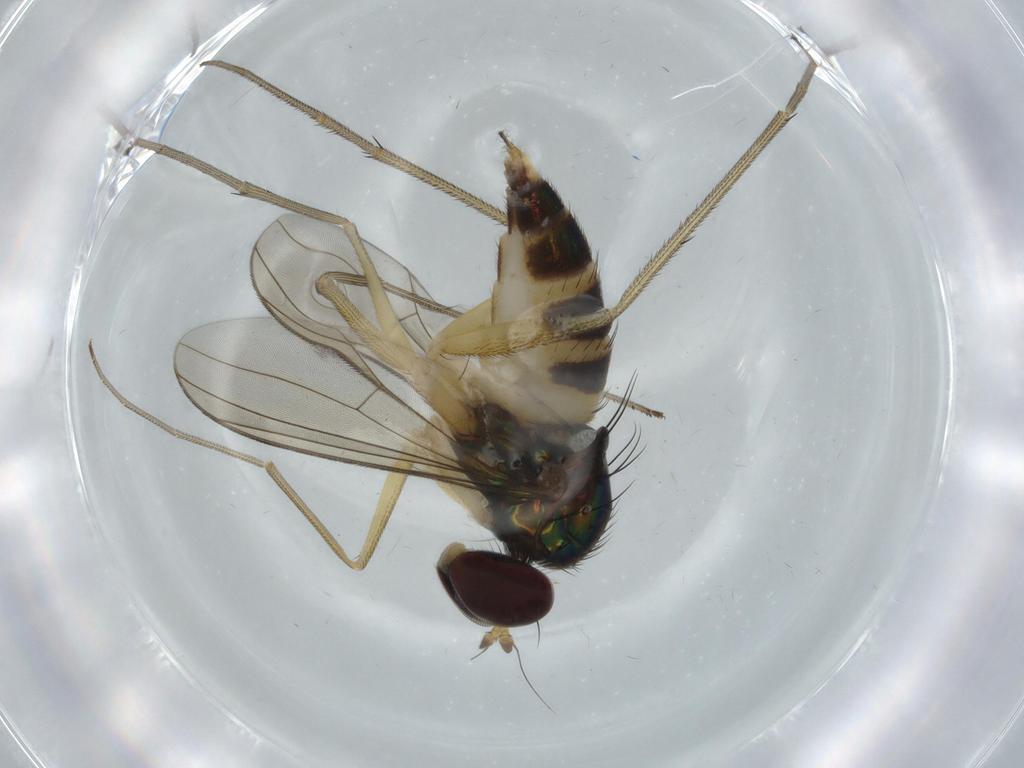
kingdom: Animalia
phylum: Arthropoda
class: Insecta
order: Diptera
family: Dolichopodidae
